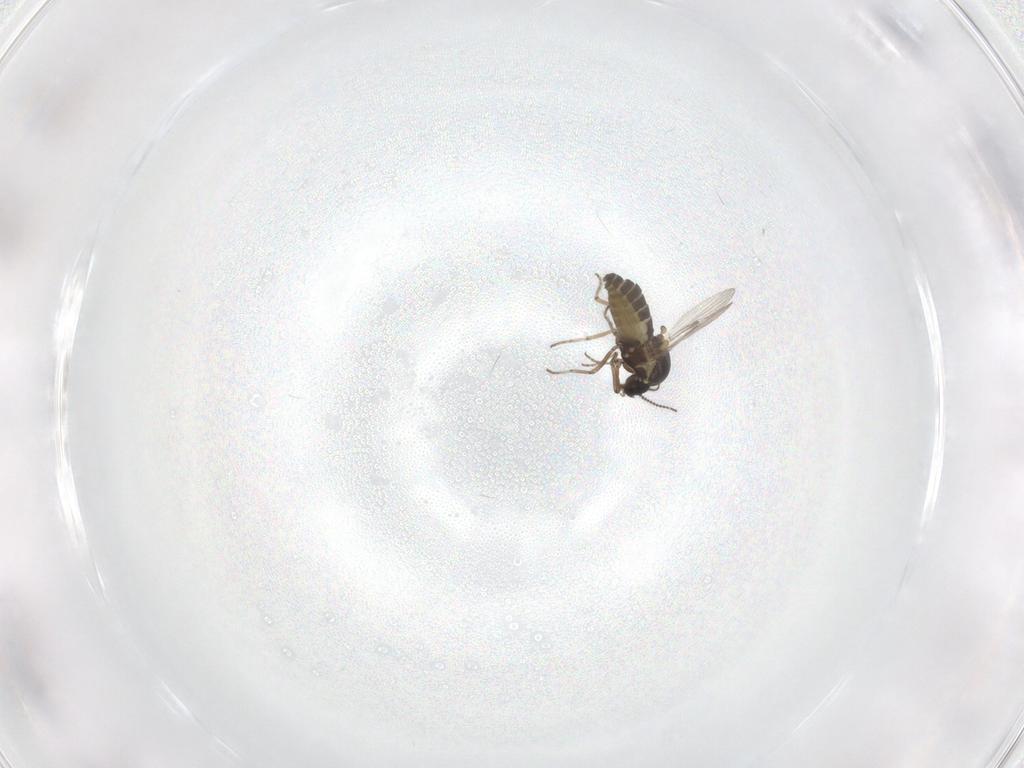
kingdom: Animalia
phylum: Arthropoda
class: Insecta
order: Diptera
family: Ceratopogonidae
